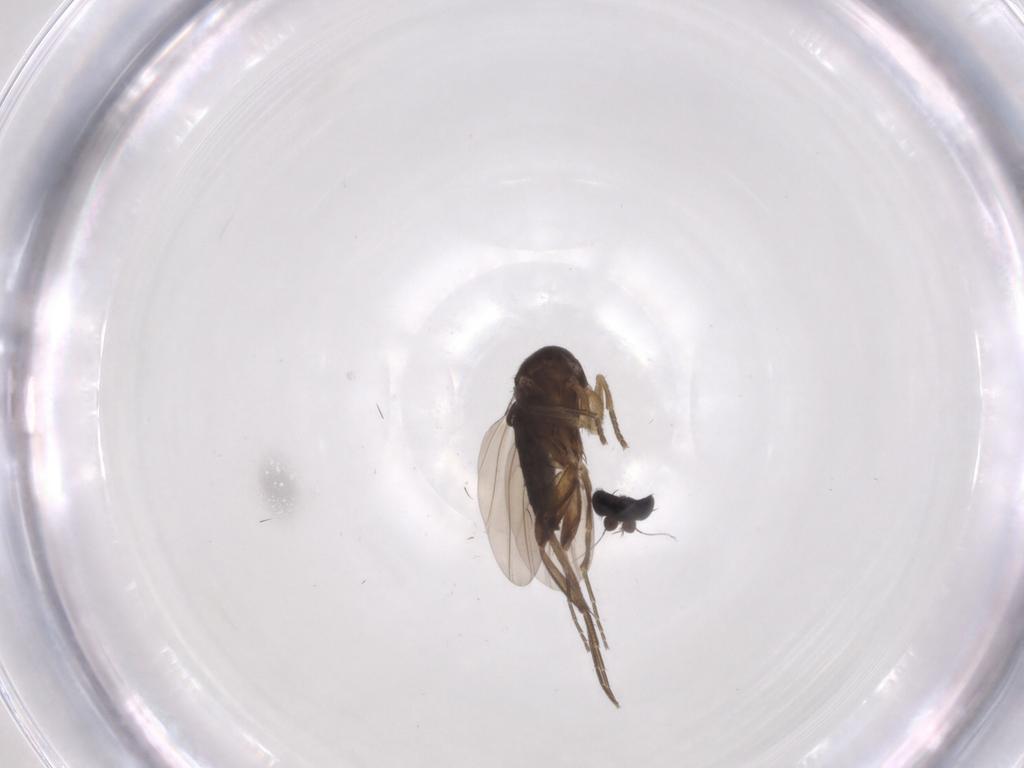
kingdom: Animalia
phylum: Arthropoda
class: Insecta
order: Diptera
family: Phoridae
